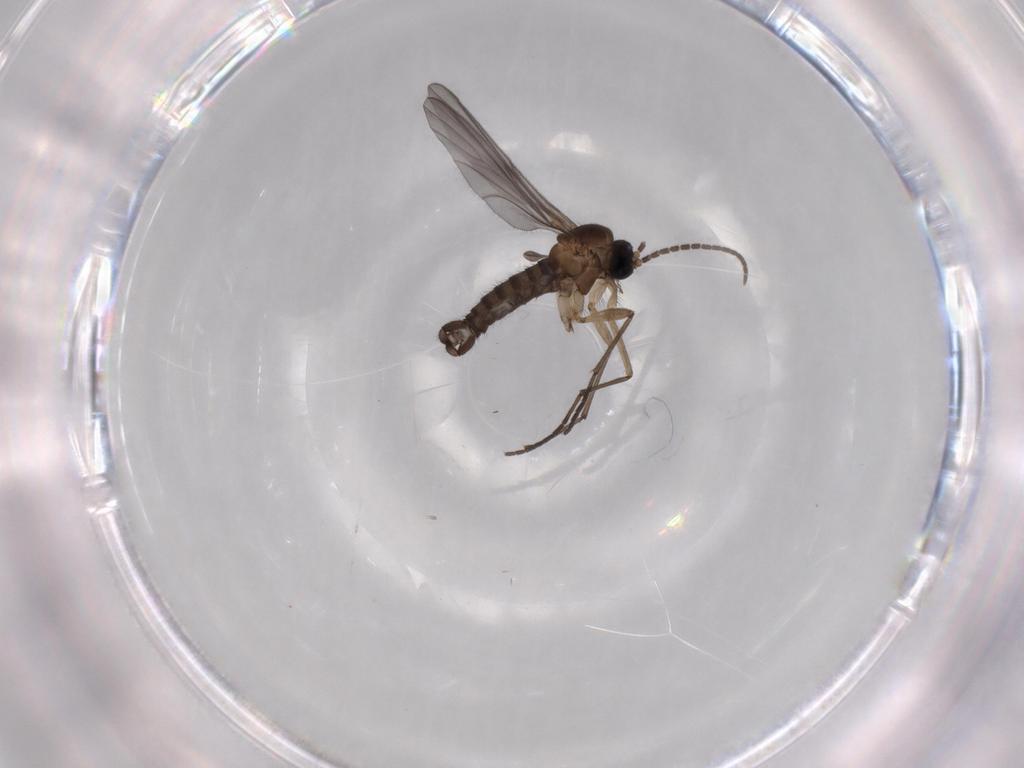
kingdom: Animalia
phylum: Arthropoda
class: Insecta
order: Diptera
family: Sciaridae
